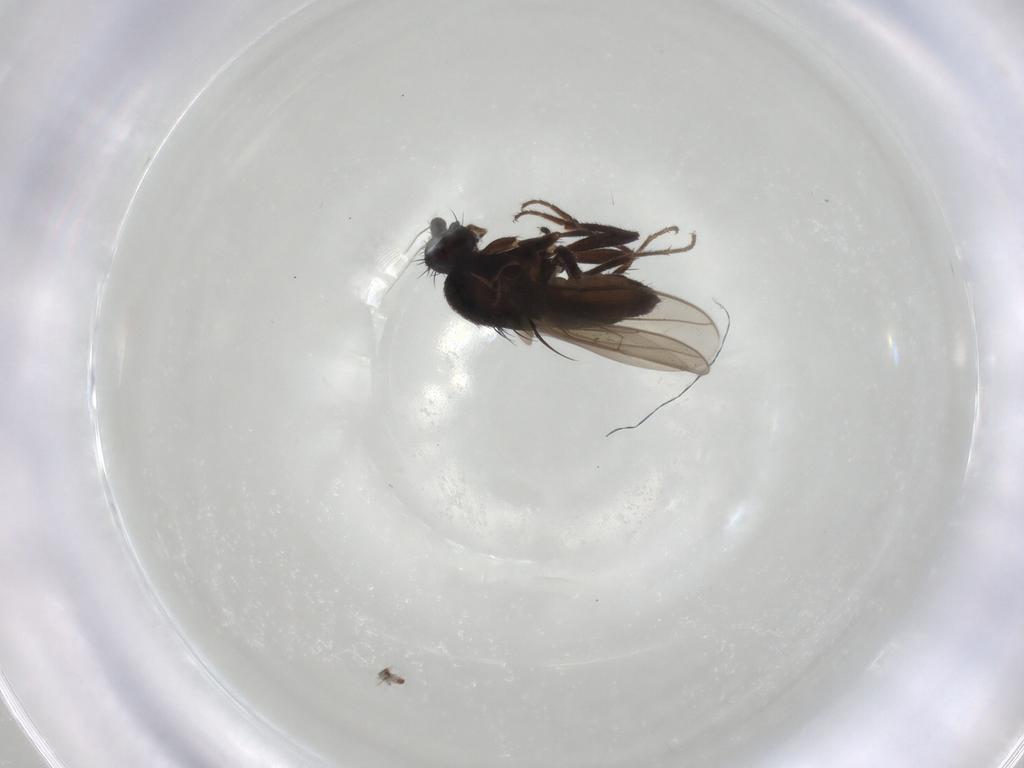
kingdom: Animalia
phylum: Arthropoda
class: Insecta
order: Diptera
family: Sphaeroceridae
